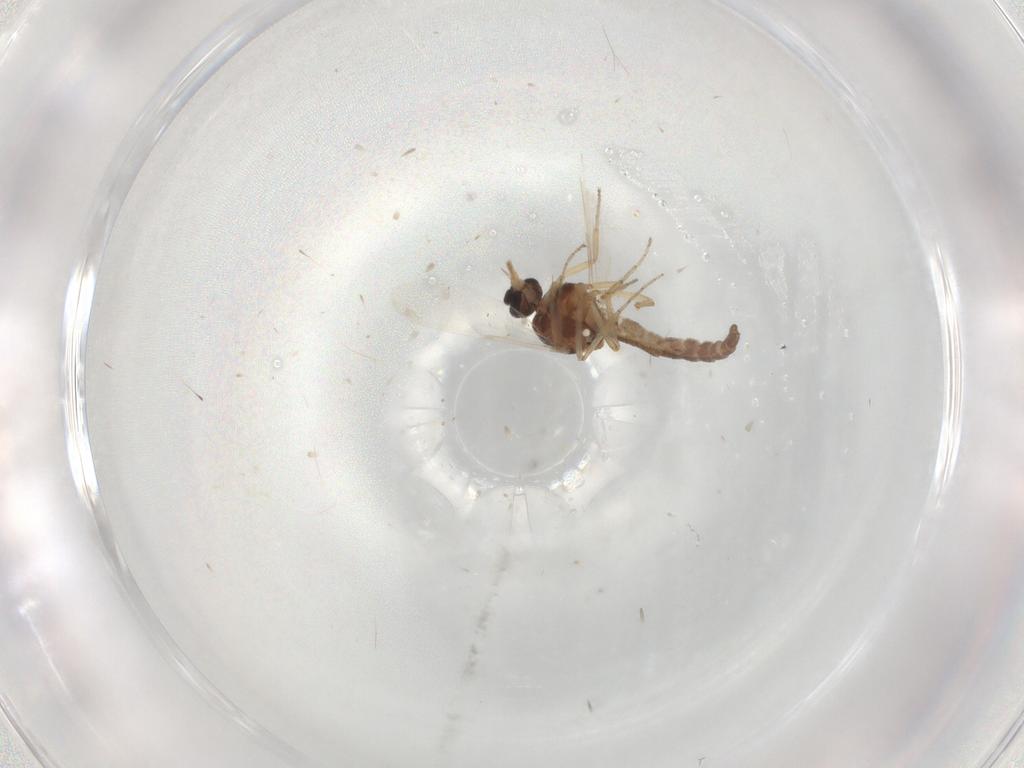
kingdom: Animalia
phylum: Arthropoda
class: Insecta
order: Diptera
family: Ceratopogonidae
